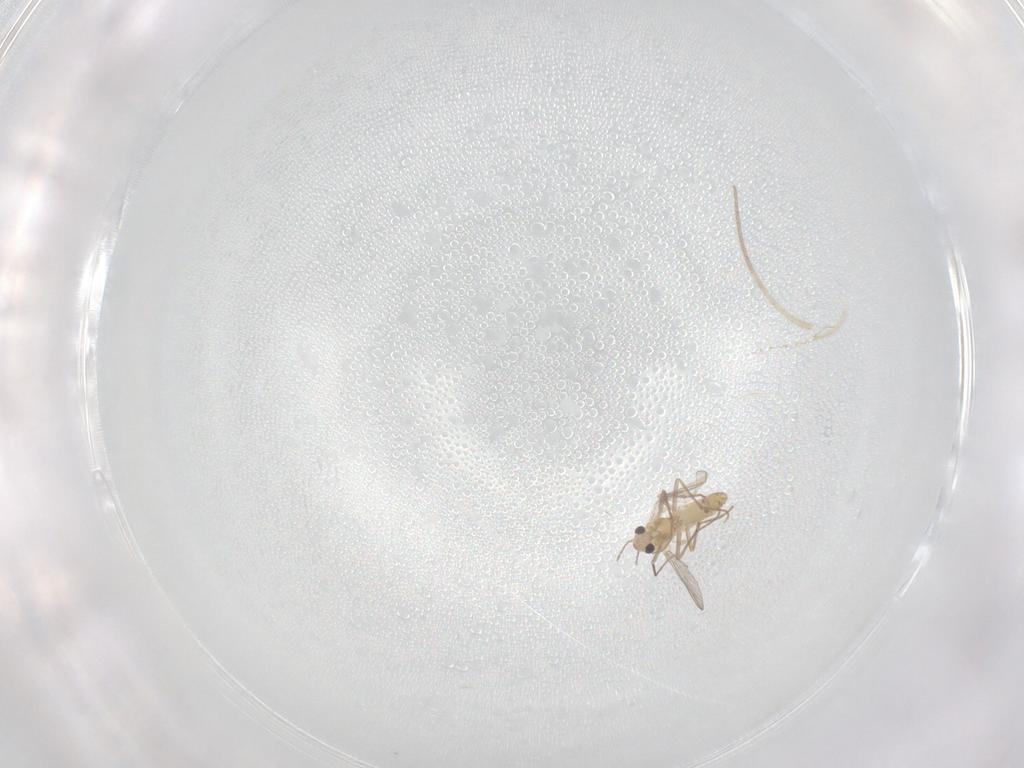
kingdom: Animalia
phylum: Arthropoda
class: Insecta
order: Diptera
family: Chironomidae
